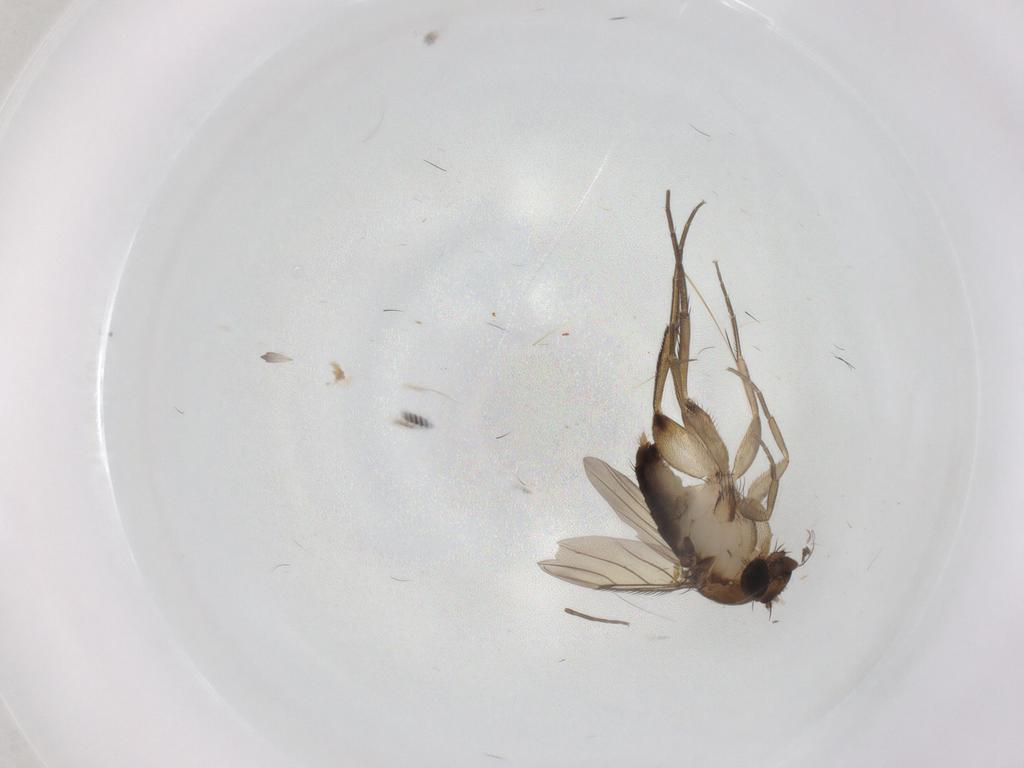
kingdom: Animalia
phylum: Arthropoda
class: Insecta
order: Diptera
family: Phoridae
